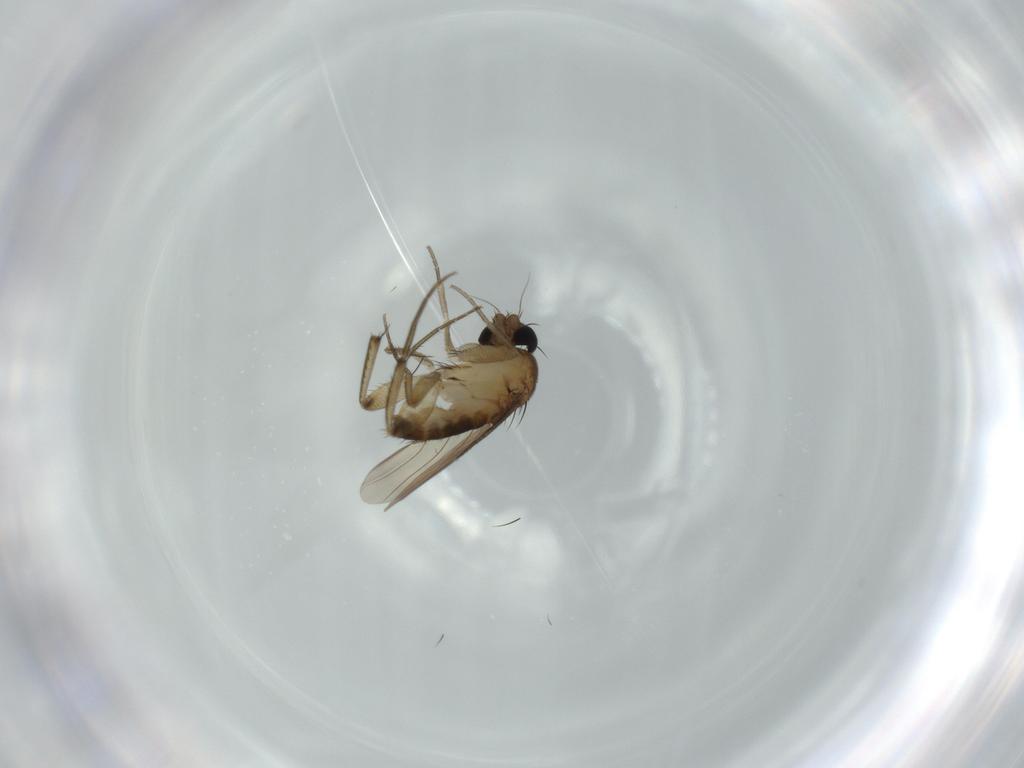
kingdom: Animalia
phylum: Arthropoda
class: Insecta
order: Diptera
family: Phoridae
